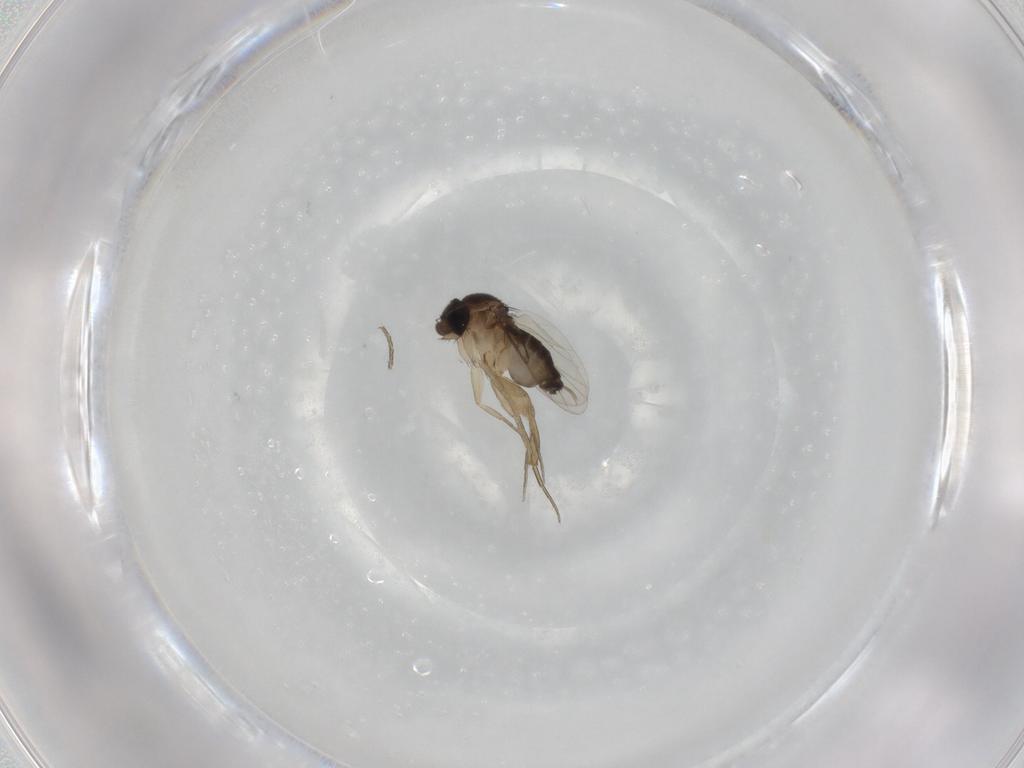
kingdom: Animalia
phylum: Arthropoda
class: Insecta
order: Diptera
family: Phoridae
